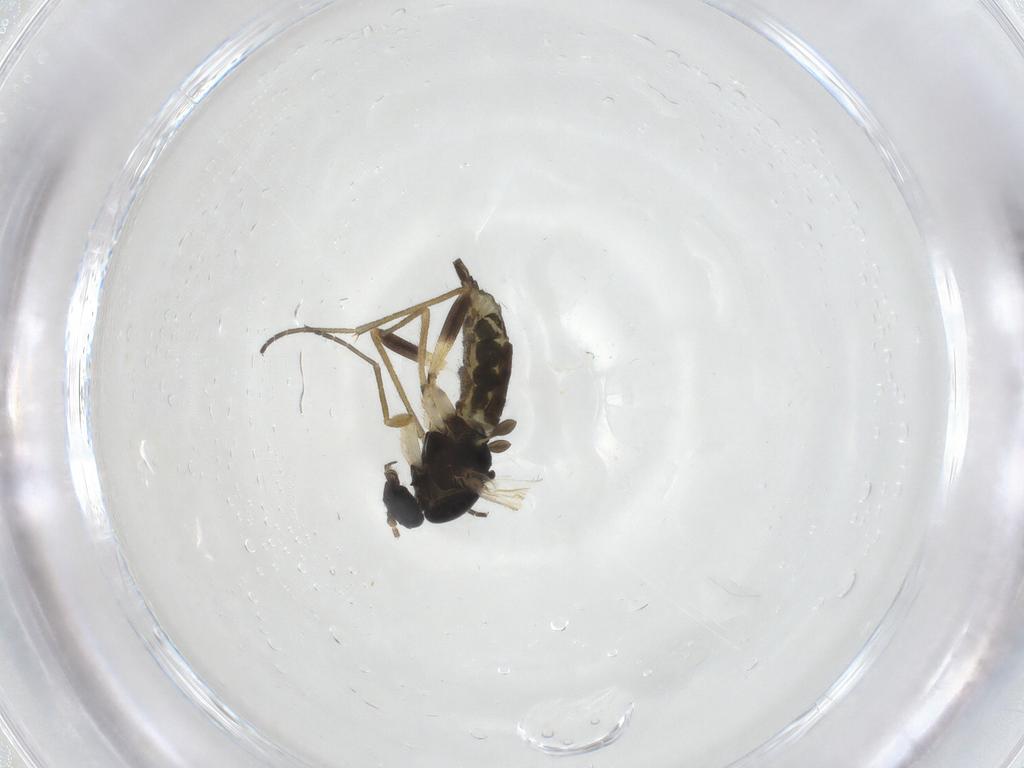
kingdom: Animalia
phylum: Arthropoda
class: Insecta
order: Diptera
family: Sciaridae
